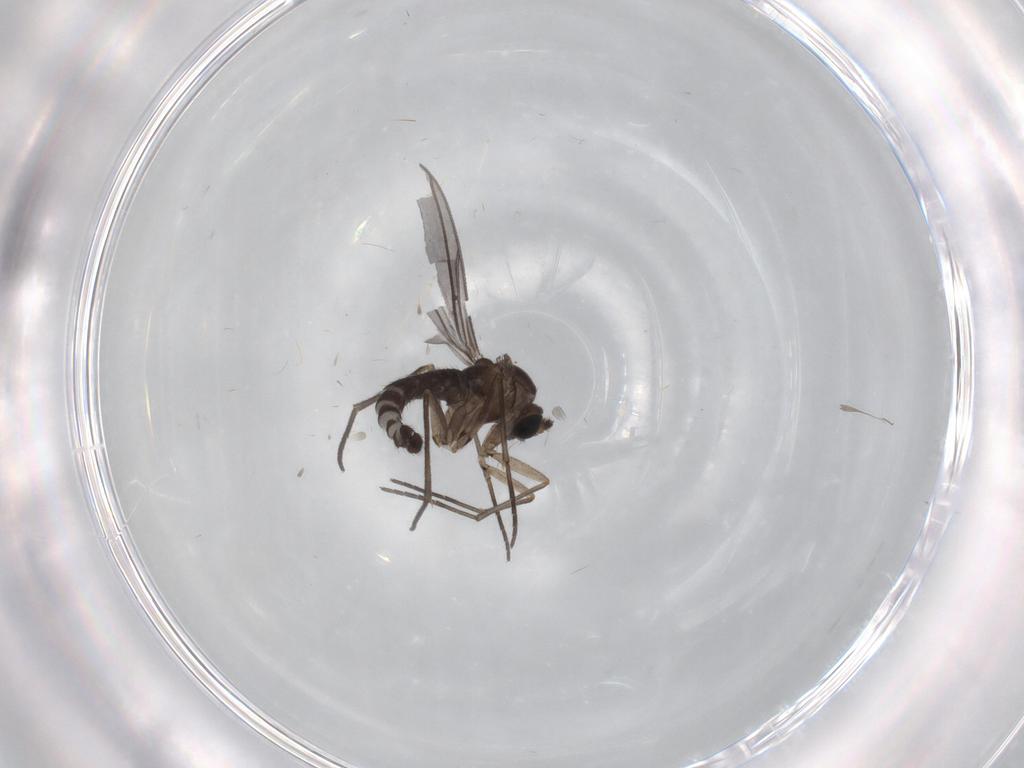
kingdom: Animalia
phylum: Arthropoda
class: Insecta
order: Diptera
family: Sciaridae
